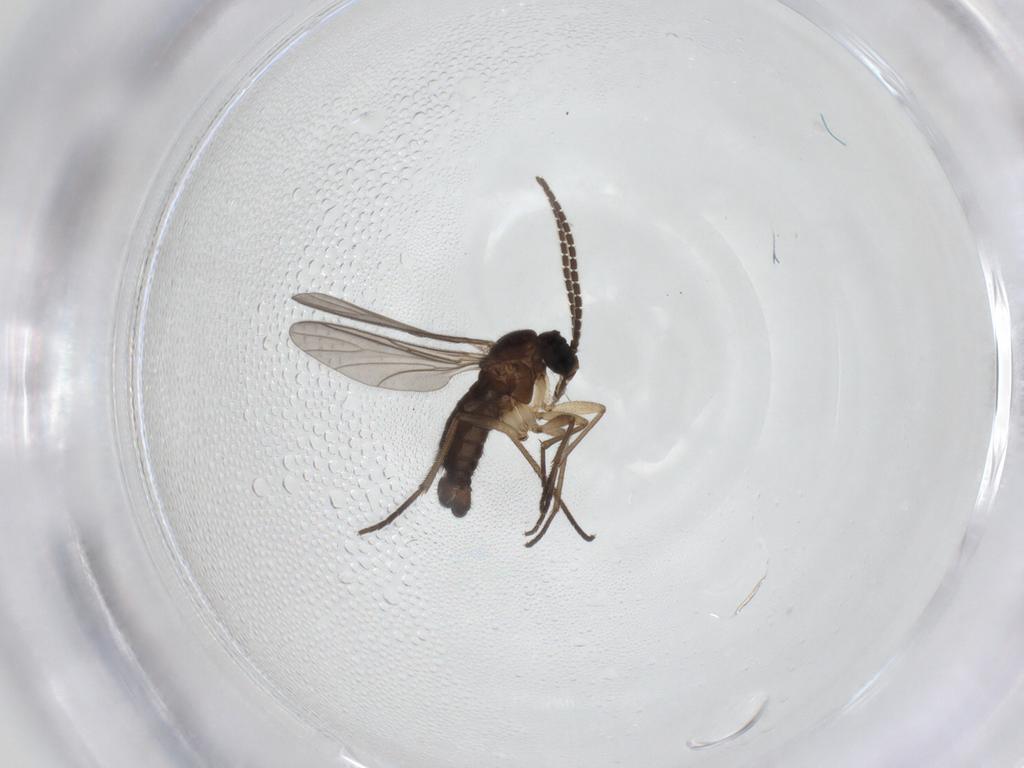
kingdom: Animalia
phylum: Arthropoda
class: Insecta
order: Diptera
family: Sciaridae
